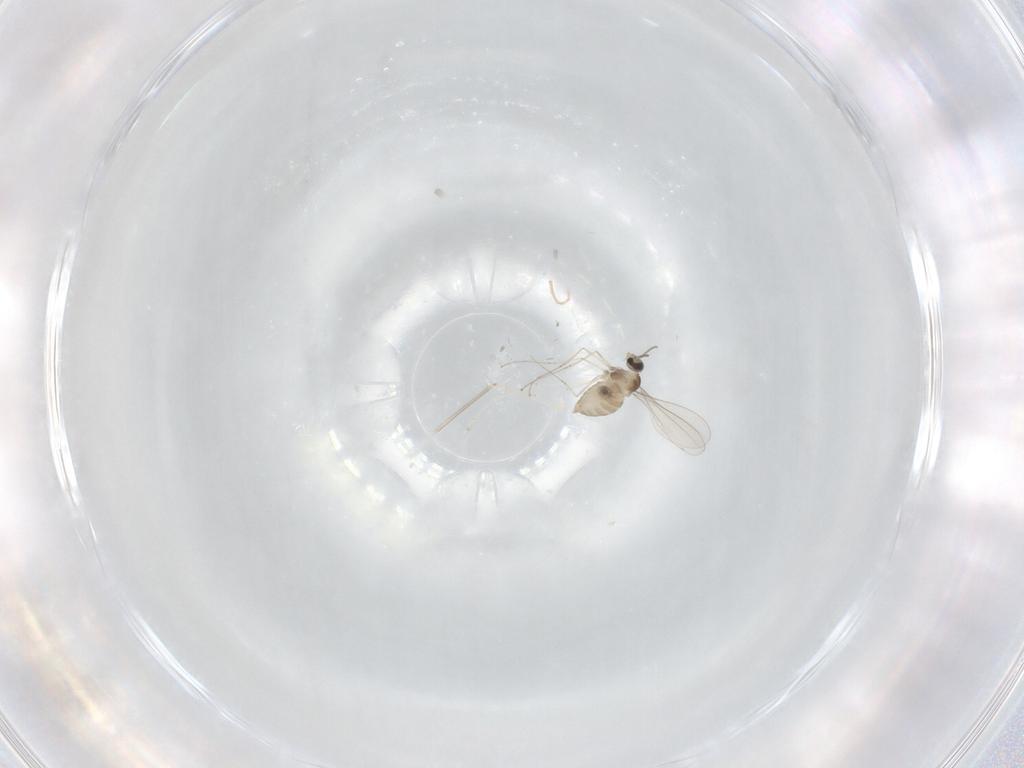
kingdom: Animalia
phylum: Arthropoda
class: Insecta
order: Diptera
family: Cecidomyiidae
